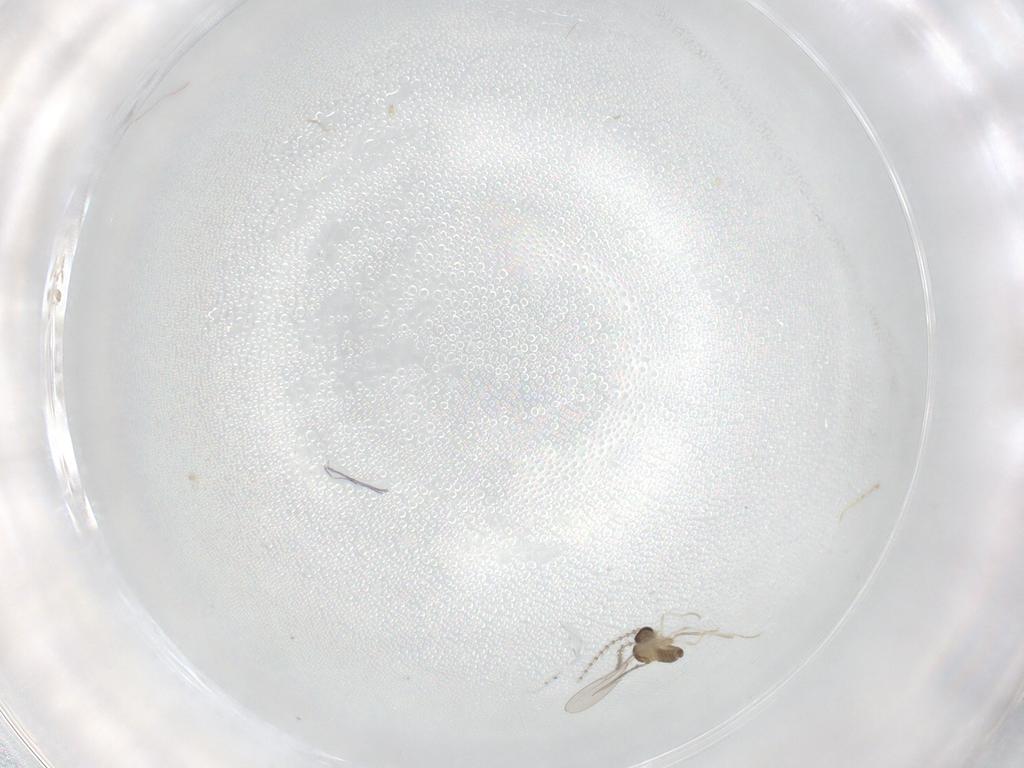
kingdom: Animalia
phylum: Arthropoda
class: Insecta
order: Diptera
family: Cecidomyiidae
